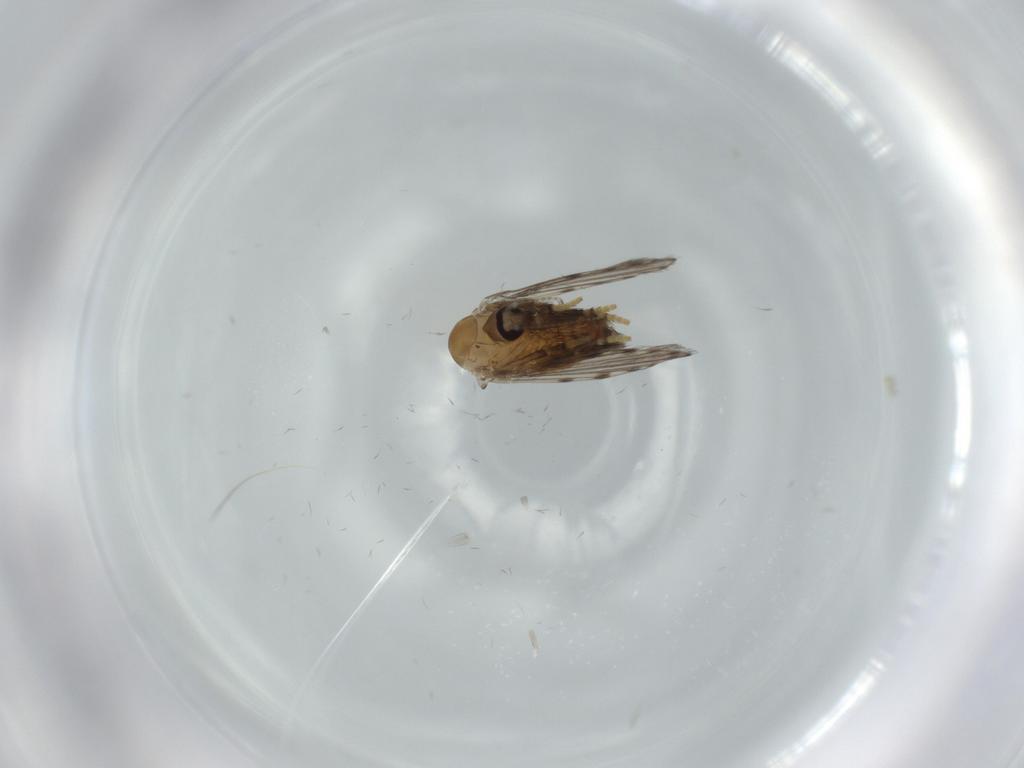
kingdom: Animalia
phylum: Arthropoda
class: Insecta
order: Diptera
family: Psychodidae
